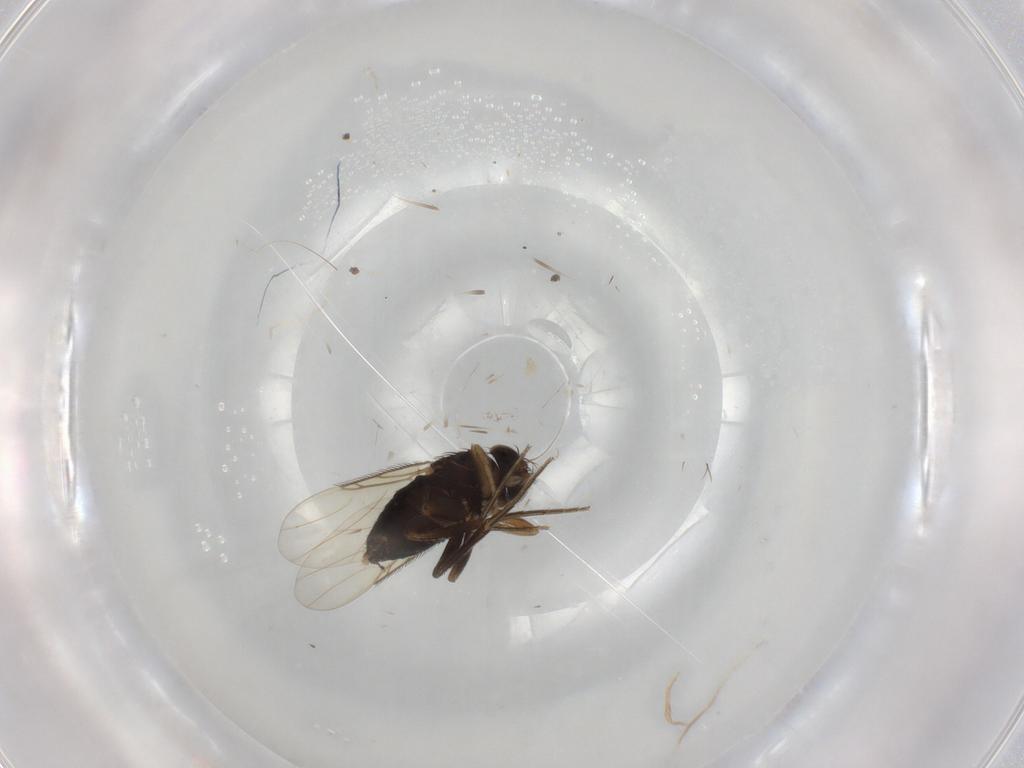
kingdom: Animalia
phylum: Arthropoda
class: Insecta
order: Diptera
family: Phoridae
